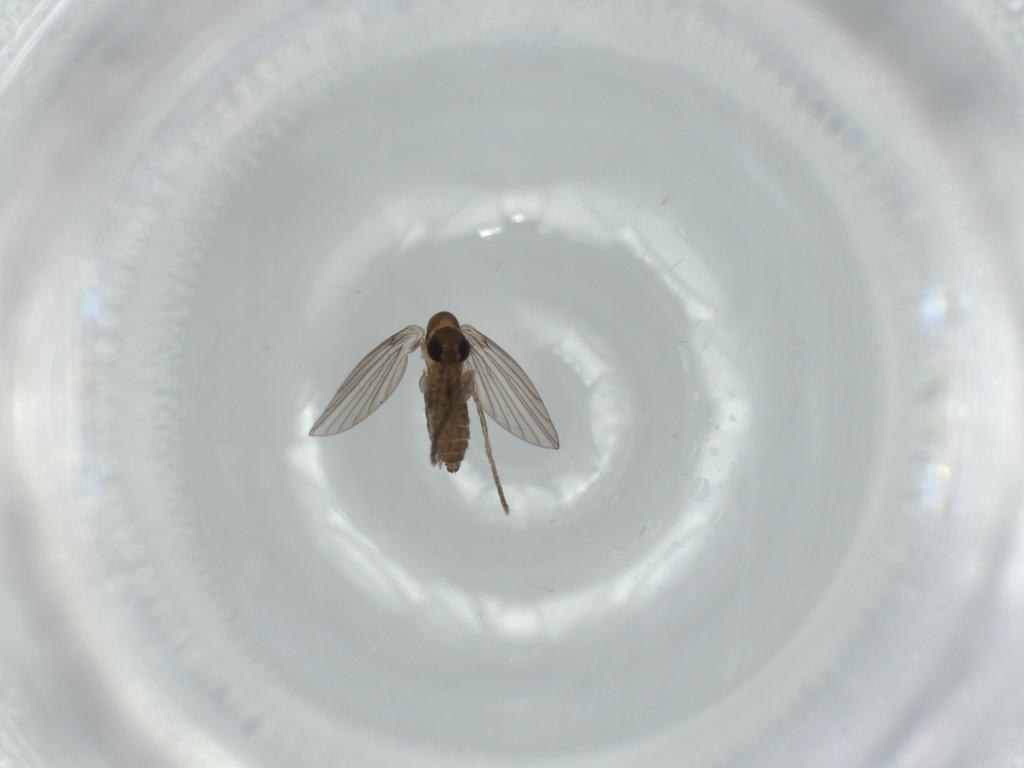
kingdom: Animalia
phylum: Arthropoda
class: Insecta
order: Diptera
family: Psychodidae
